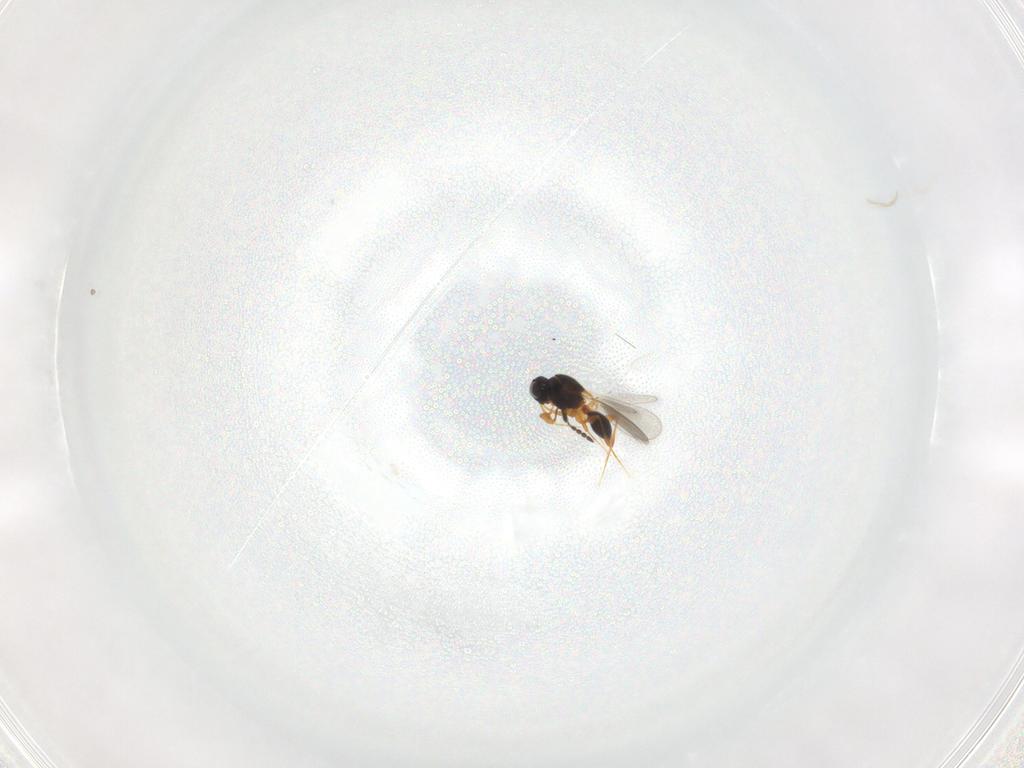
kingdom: Animalia
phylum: Arthropoda
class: Insecta
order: Hymenoptera
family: Platygastridae
